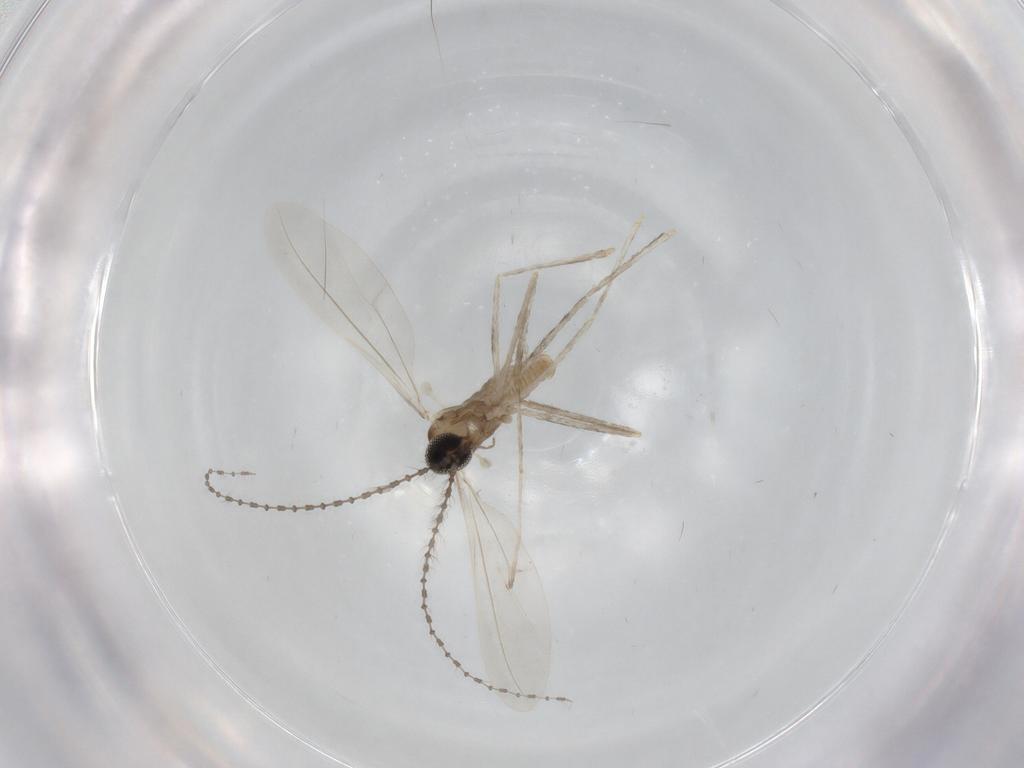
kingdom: Animalia
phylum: Arthropoda
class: Insecta
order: Diptera
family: Cecidomyiidae
